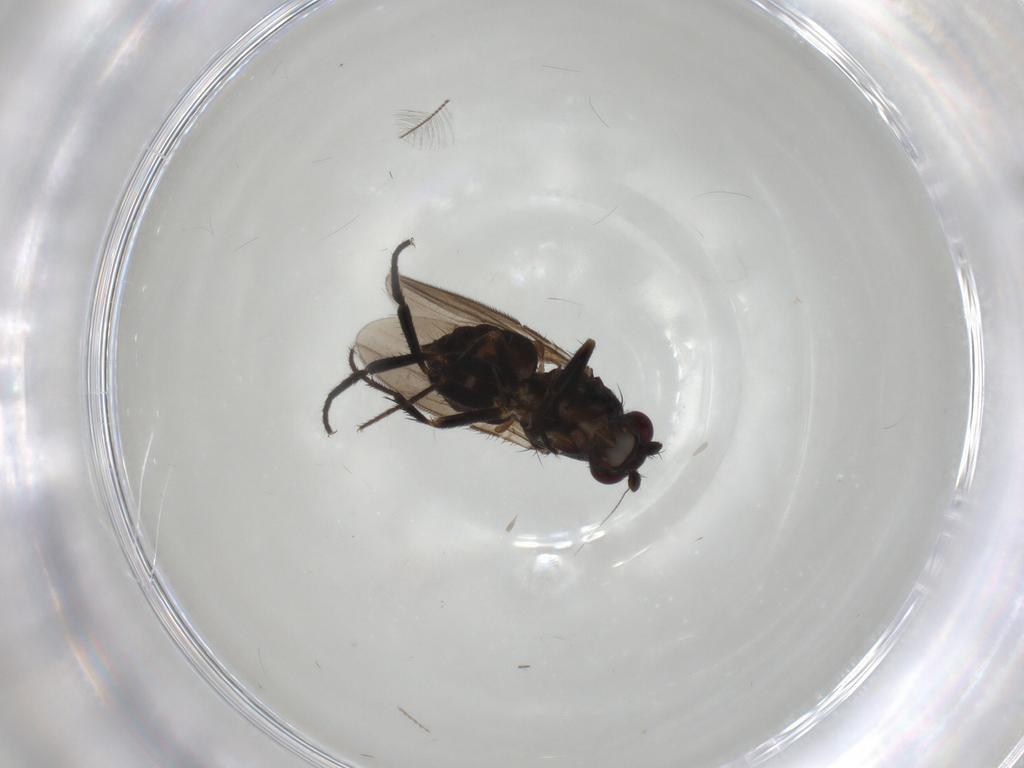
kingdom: Animalia
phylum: Arthropoda
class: Insecta
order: Diptera
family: Sphaeroceridae
